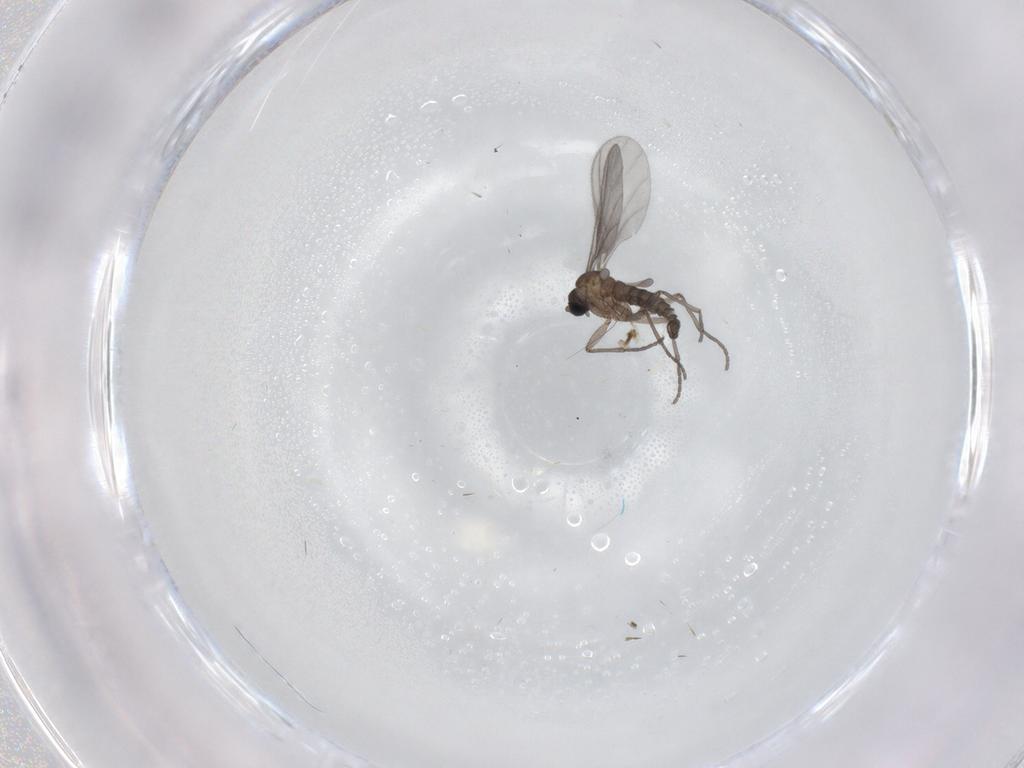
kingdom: Animalia
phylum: Arthropoda
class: Insecta
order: Diptera
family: Sciaridae
